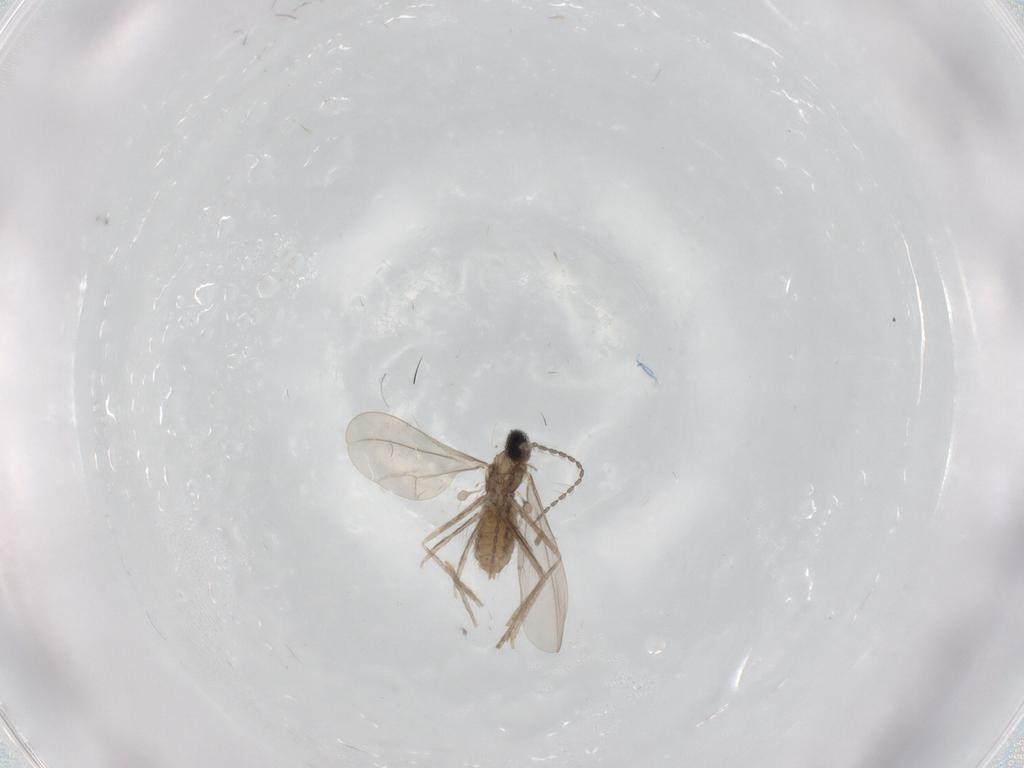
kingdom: Animalia
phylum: Arthropoda
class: Insecta
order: Diptera
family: Cecidomyiidae
